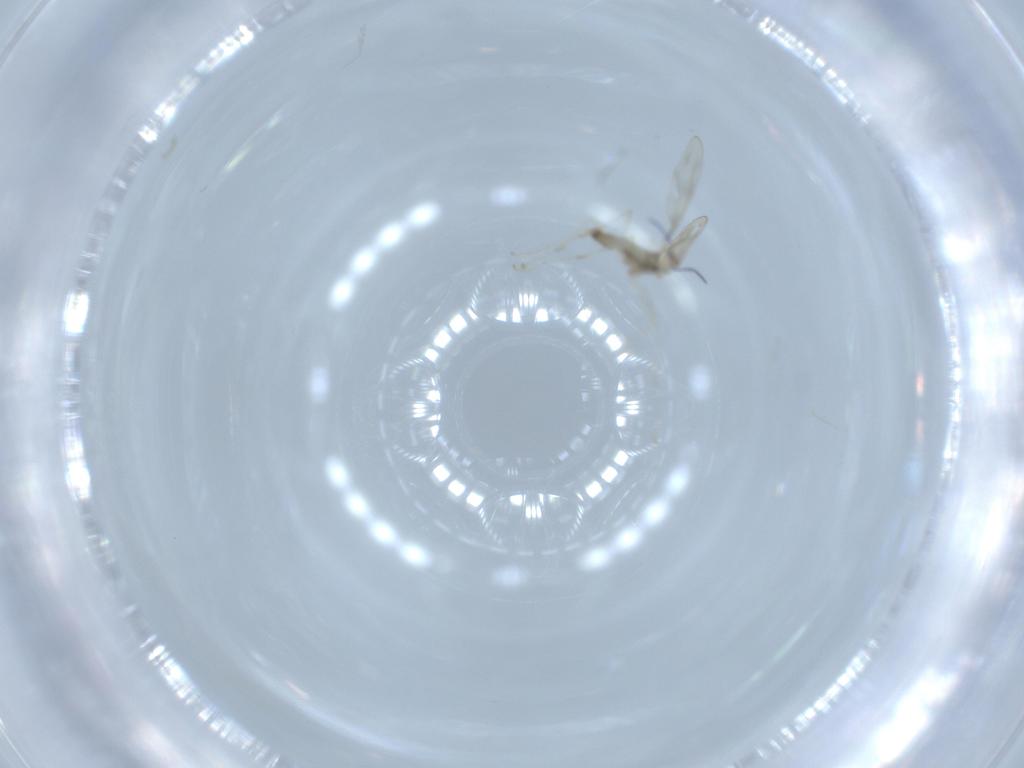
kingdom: Animalia
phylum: Arthropoda
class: Insecta
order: Diptera
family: Cecidomyiidae
